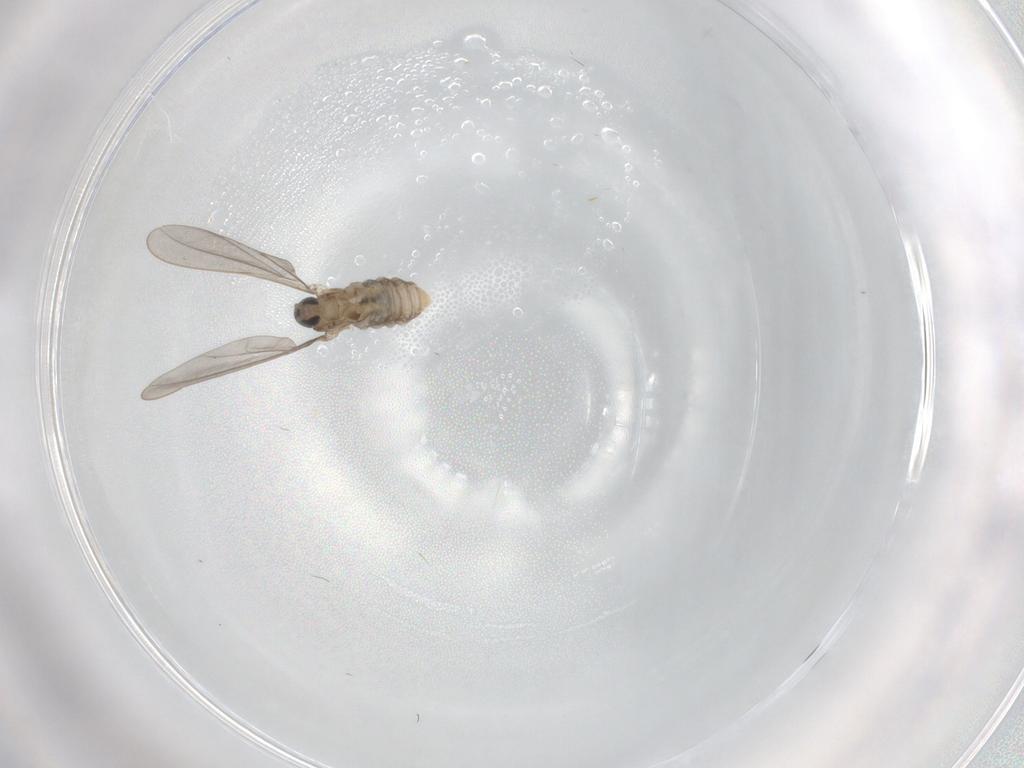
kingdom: Animalia
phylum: Arthropoda
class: Insecta
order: Diptera
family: Cecidomyiidae
